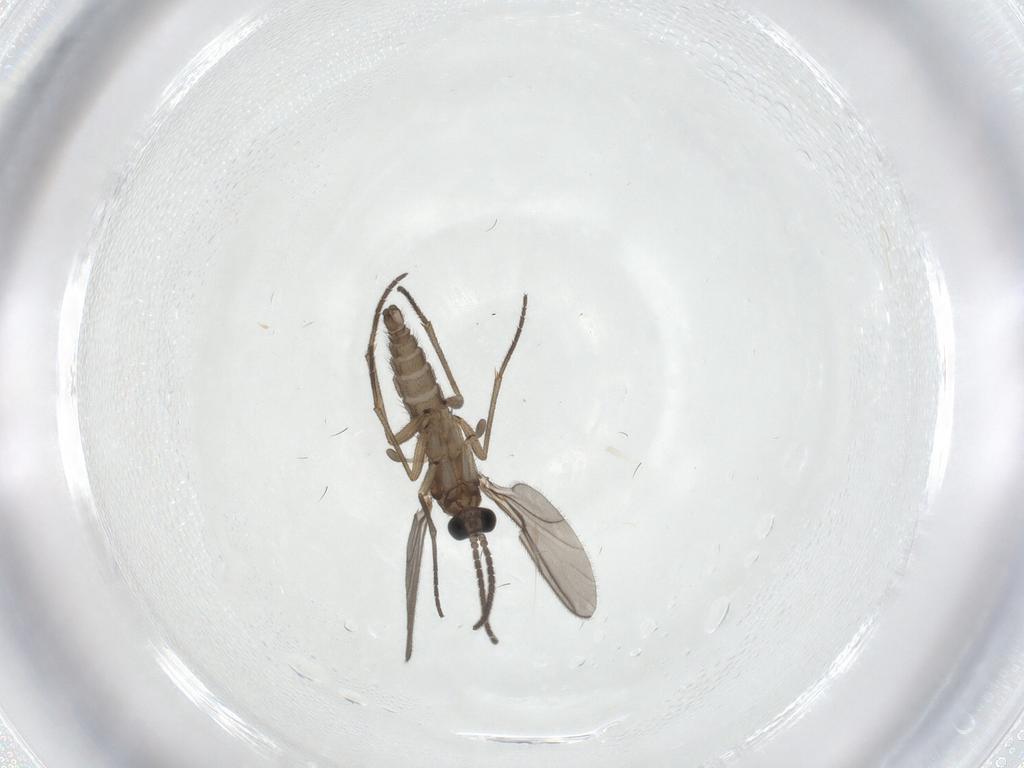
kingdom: Animalia
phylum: Arthropoda
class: Insecta
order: Diptera
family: Sciaridae
